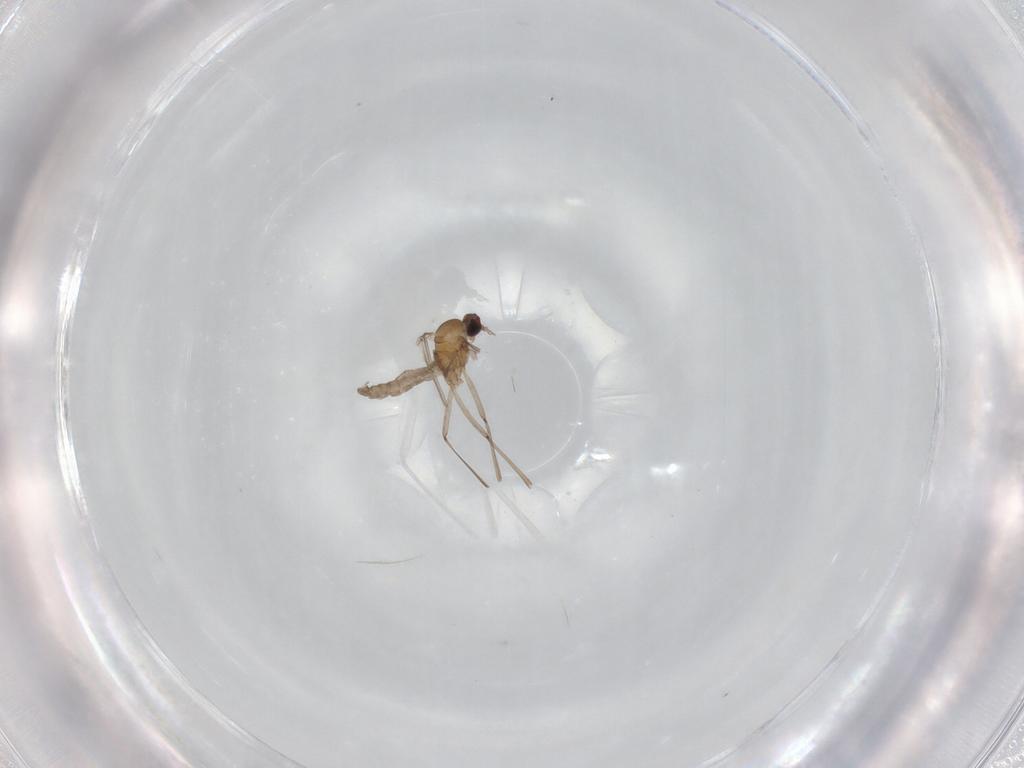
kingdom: Animalia
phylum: Arthropoda
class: Insecta
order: Diptera
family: Cecidomyiidae
